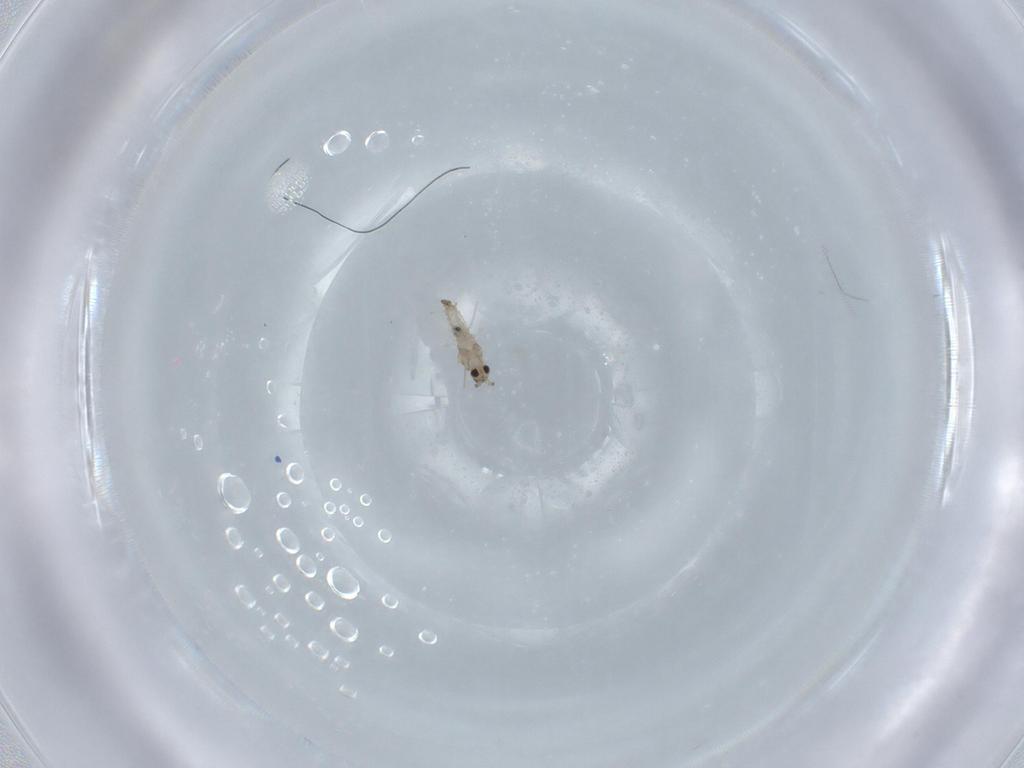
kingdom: Animalia
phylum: Arthropoda
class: Insecta
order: Diptera
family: Cecidomyiidae
